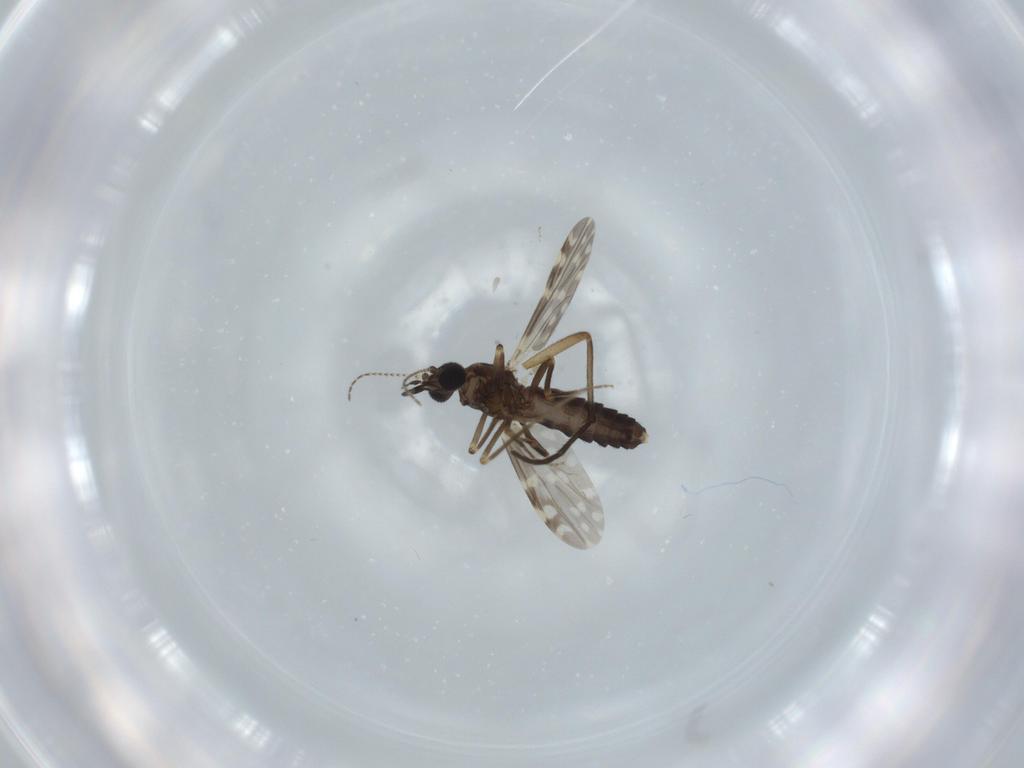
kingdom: Animalia
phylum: Arthropoda
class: Insecta
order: Diptera
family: Ceratopogonidae
